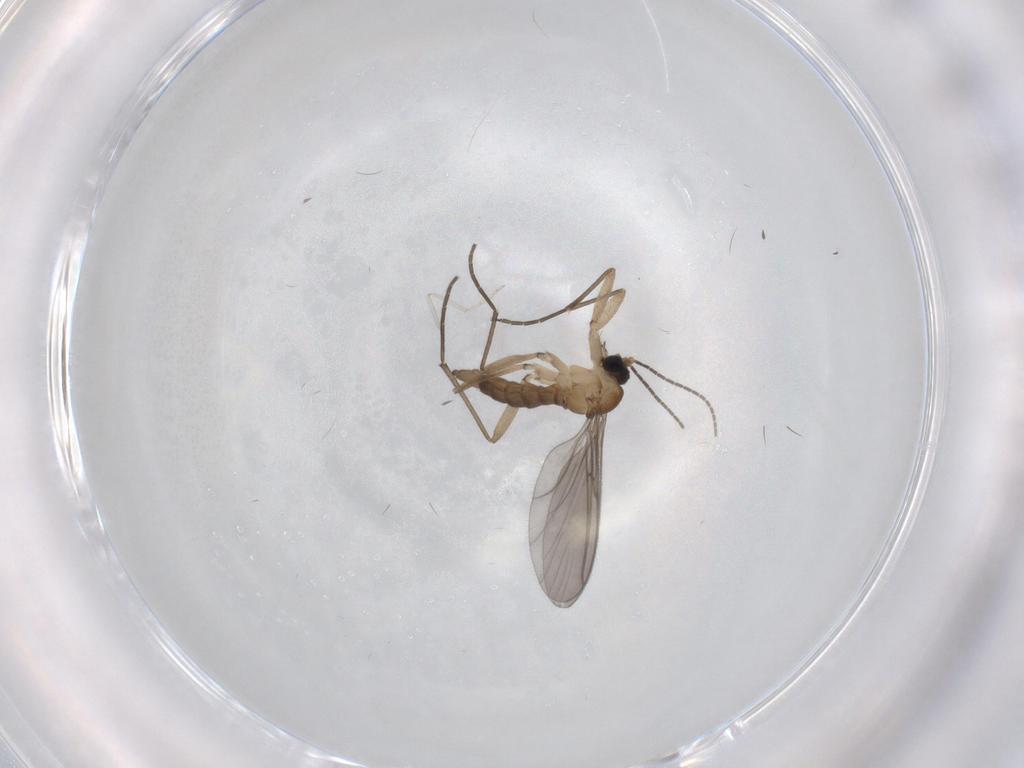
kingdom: Animalia
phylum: Arthropoda
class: Insecta
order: Diptera
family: Sciaridae
